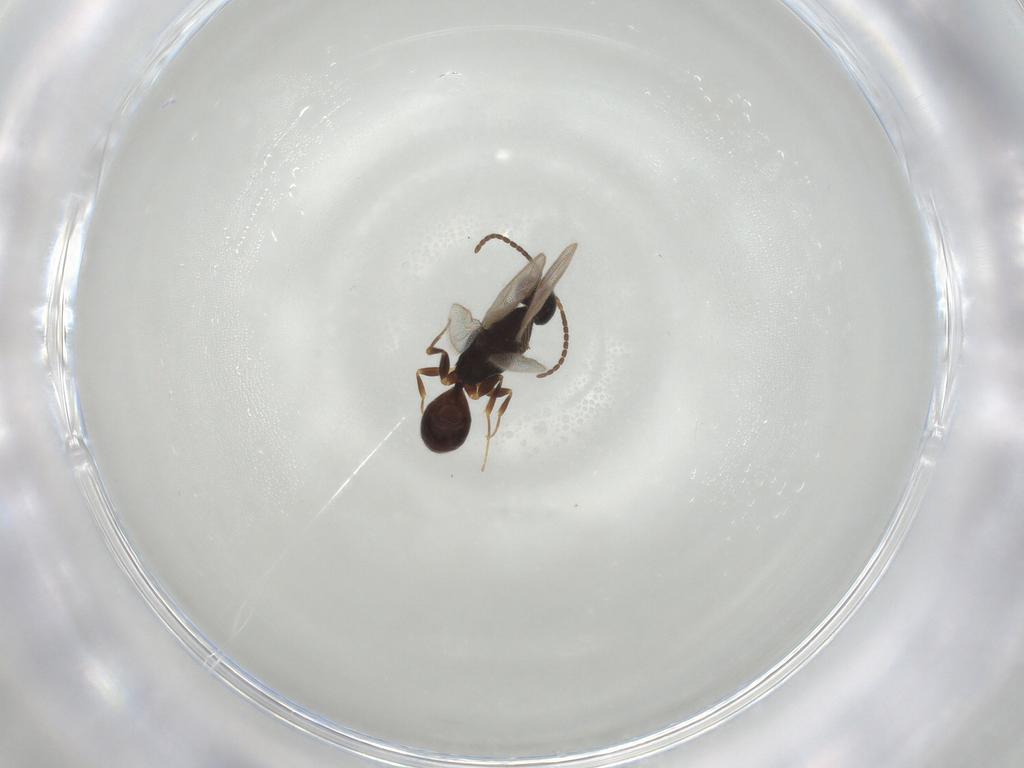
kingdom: Animalia
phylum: Arthropoda
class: Insecta
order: Hymenoptera
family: Bethylidae
